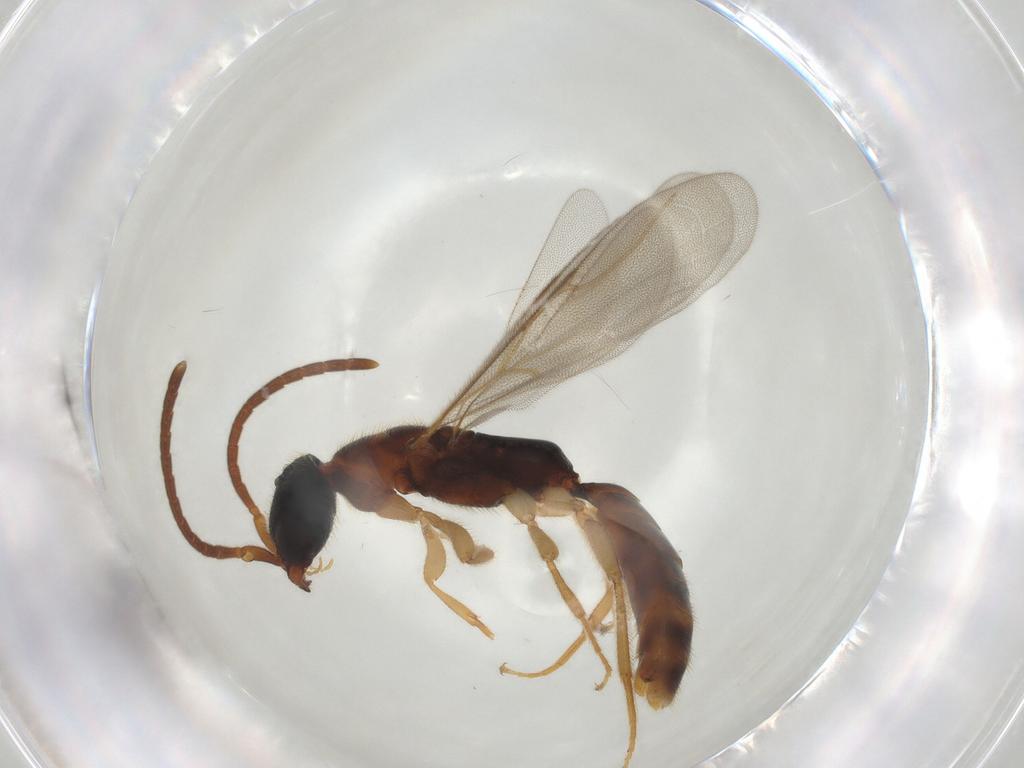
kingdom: Animalia
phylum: Arthropoda
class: Insecta
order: Hymenoptera
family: Bethylidae
